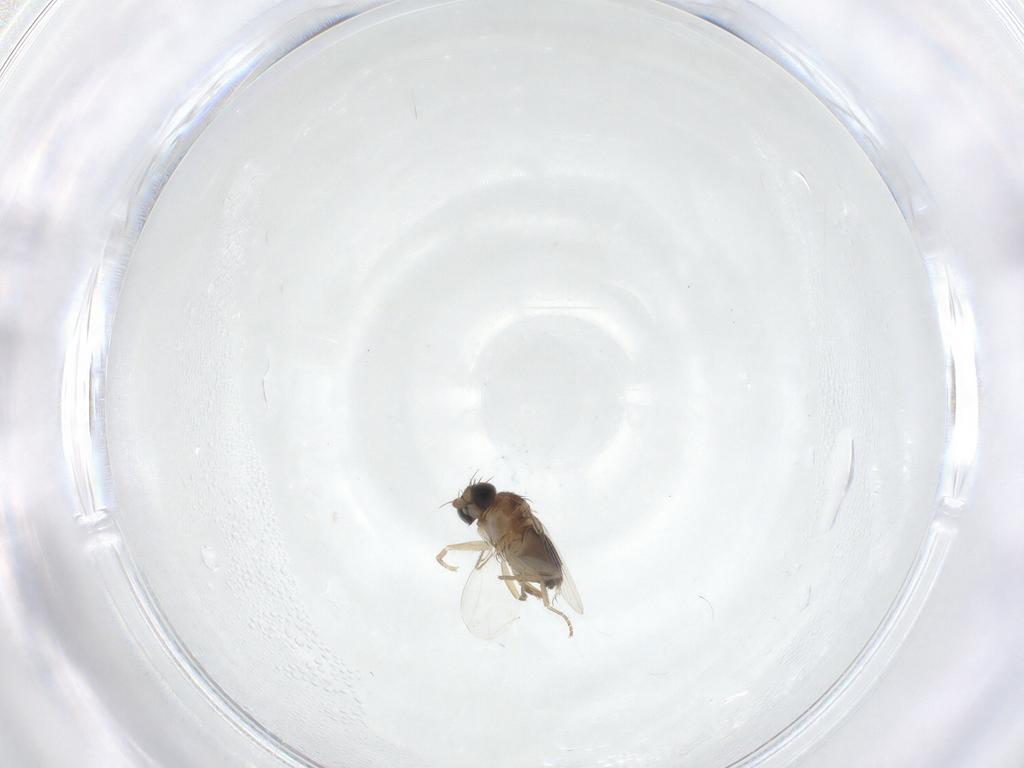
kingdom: Animalia
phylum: Arthropoda
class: Insecta
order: Diptera
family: Phoridae
